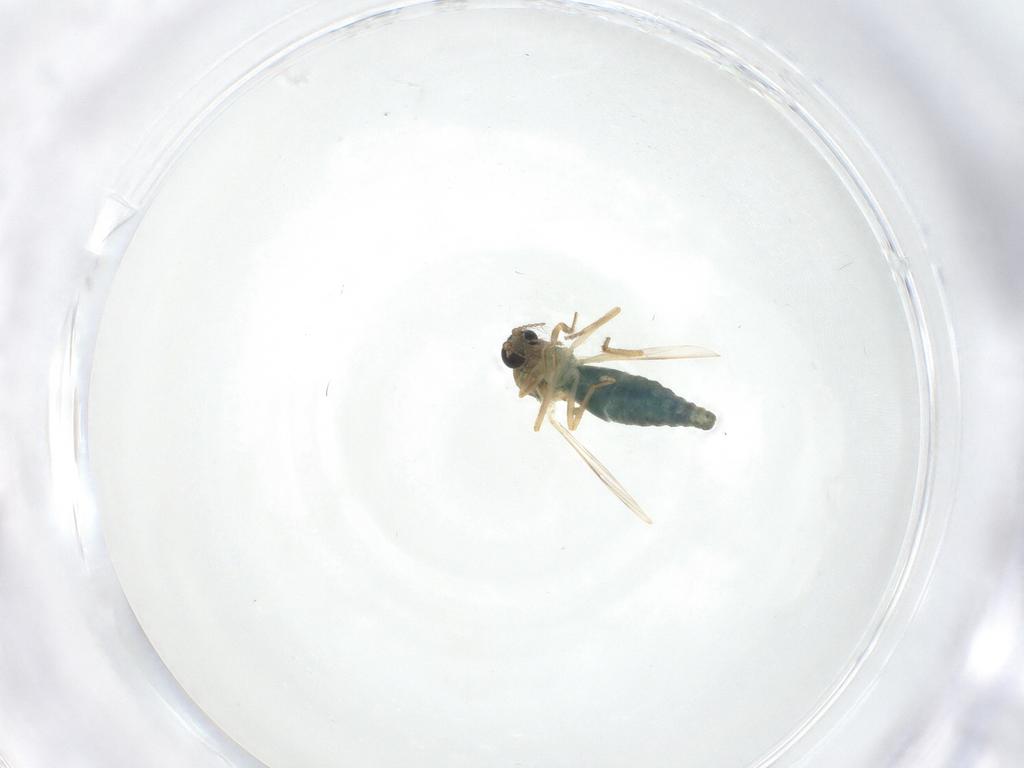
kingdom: Animalia
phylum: Arthropoda
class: Insecta
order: Diptera
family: Ceratopogonidae
